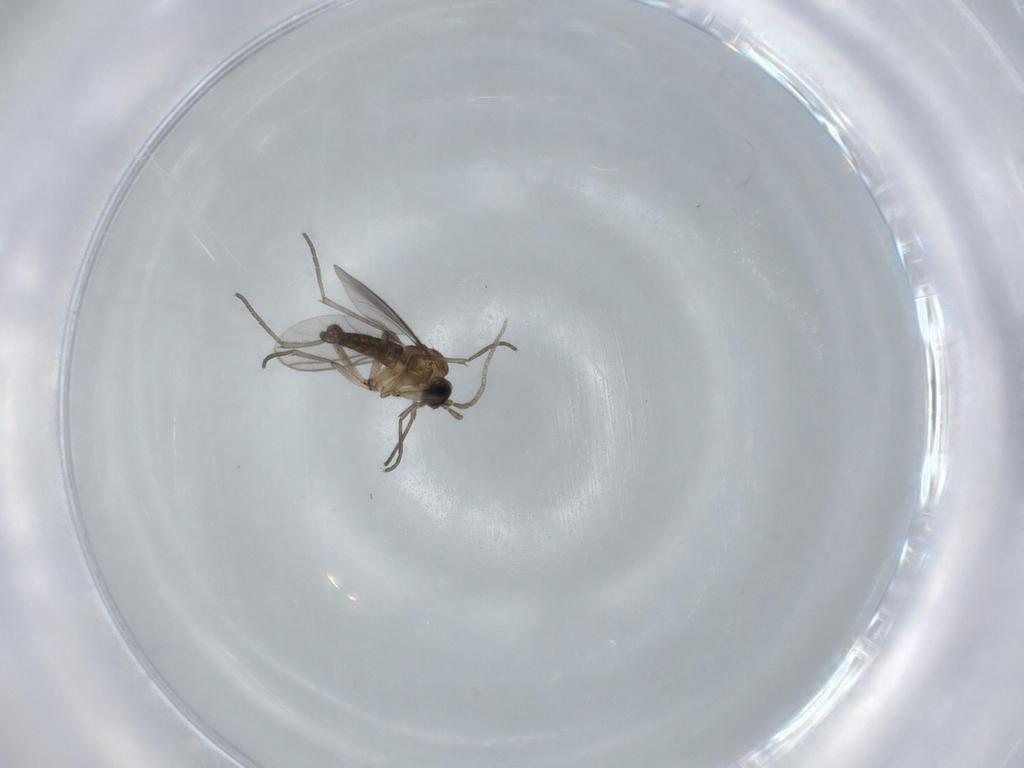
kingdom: Animalia
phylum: Arthropoda
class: Insecta
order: Diptera
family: Sciaridae
